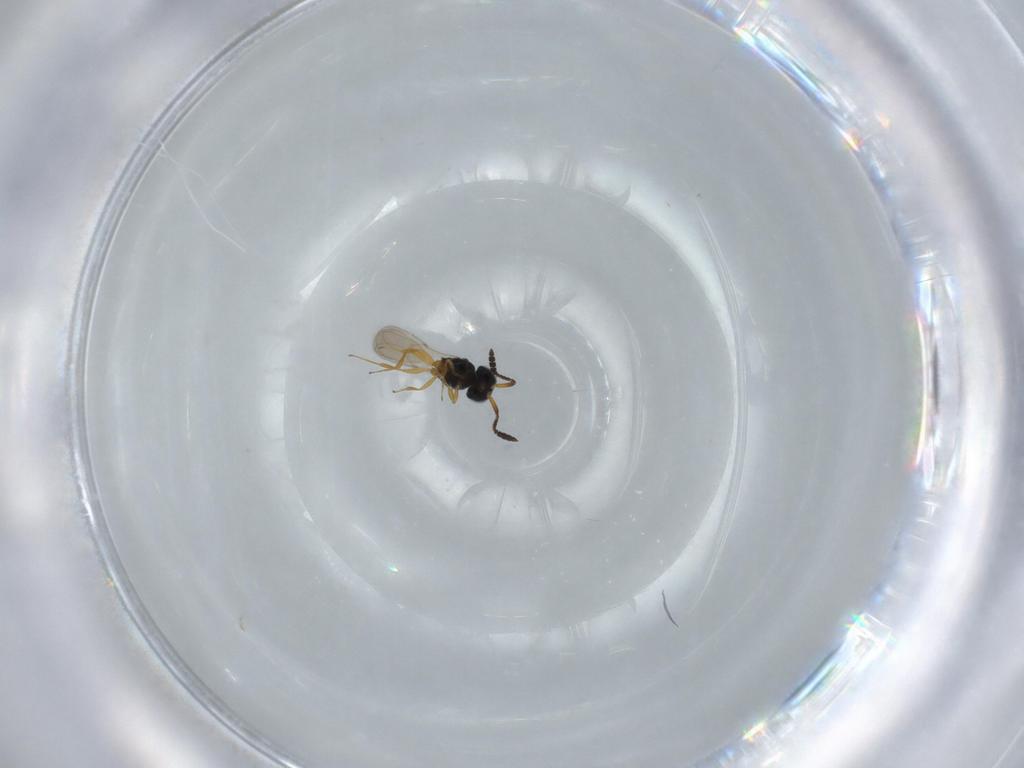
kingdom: Animalia
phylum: Arthropoda
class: Insecta
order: Hymenoptera
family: Scelionidae
